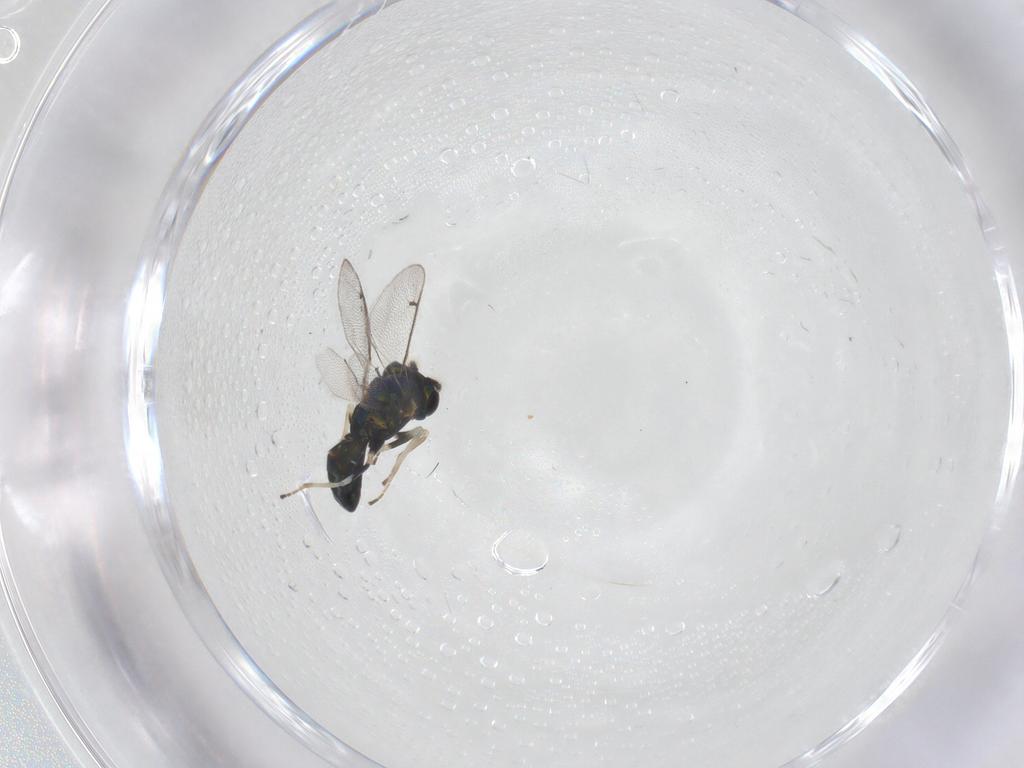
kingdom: Animalia
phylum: Arthropoda
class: Insecta
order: Hymenoptera
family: Eulophidae
